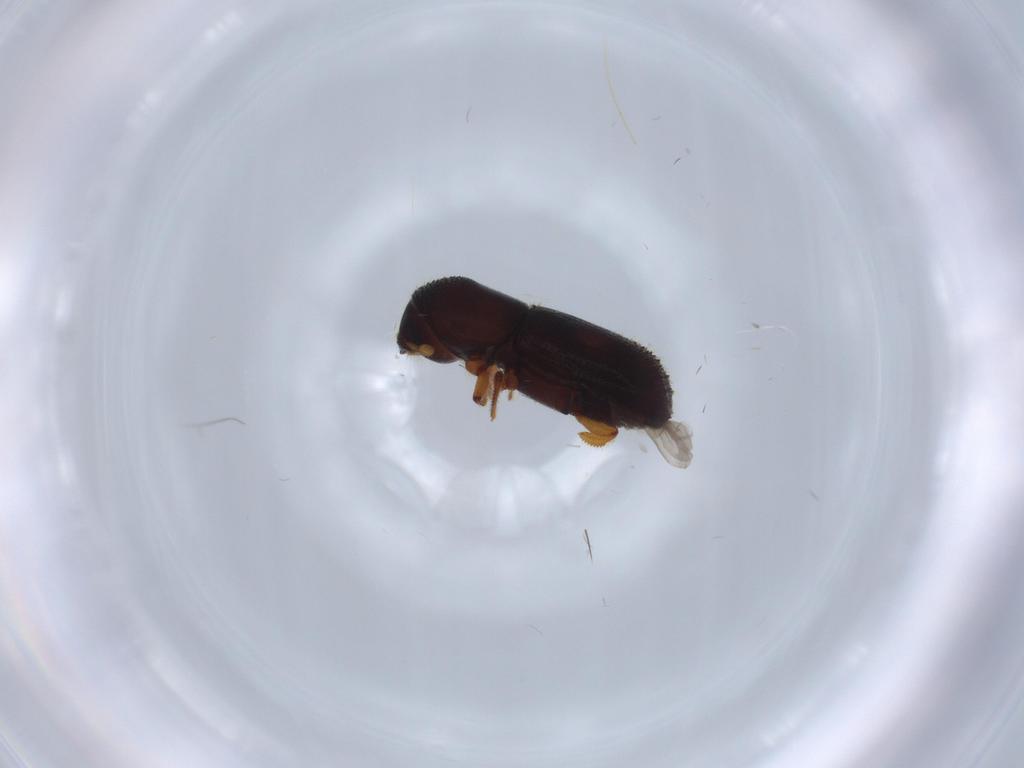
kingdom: Animalia
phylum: Arthropoda
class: Insecta
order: Coleoptera
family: Curculionidae
